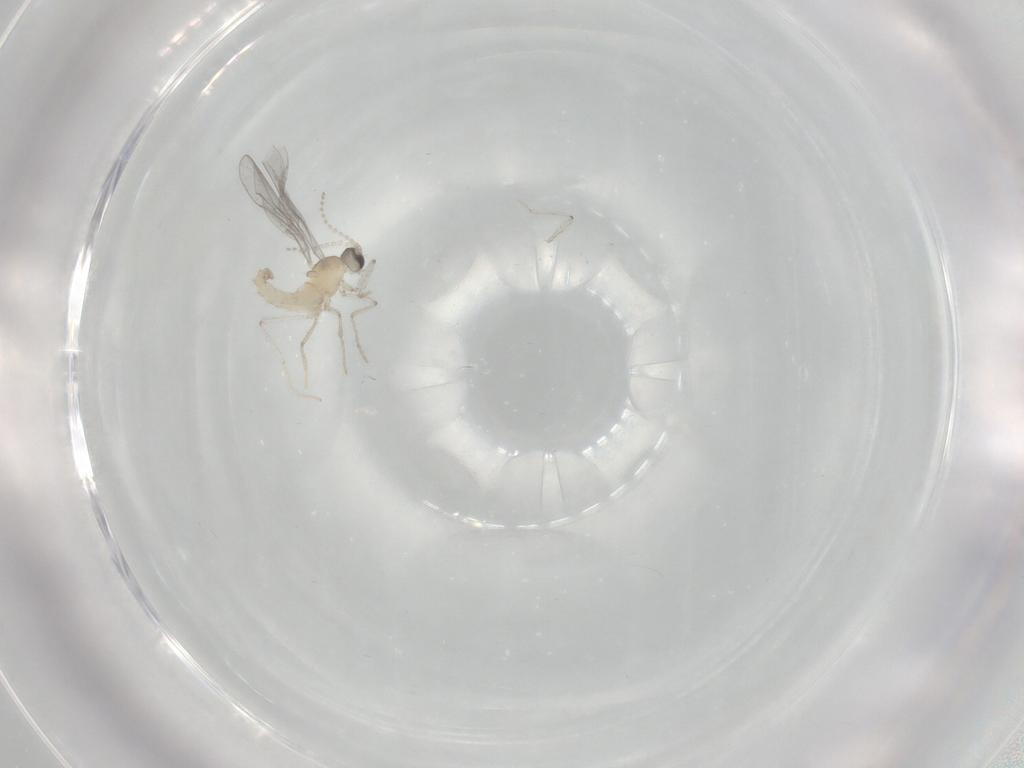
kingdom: Animalia
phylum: Arthropoda
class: Insecta
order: Diptera
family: Cecidomyiidae
